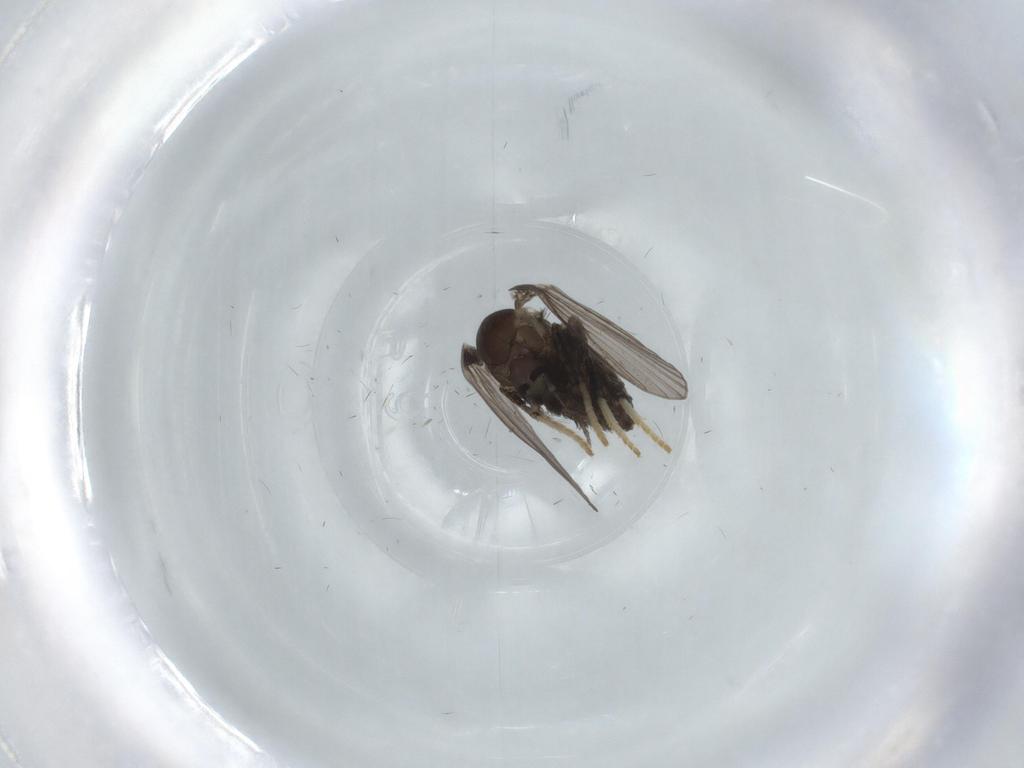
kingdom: Animalia
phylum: Arthropoda
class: Insecta
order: Diptera
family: Psychodidae
